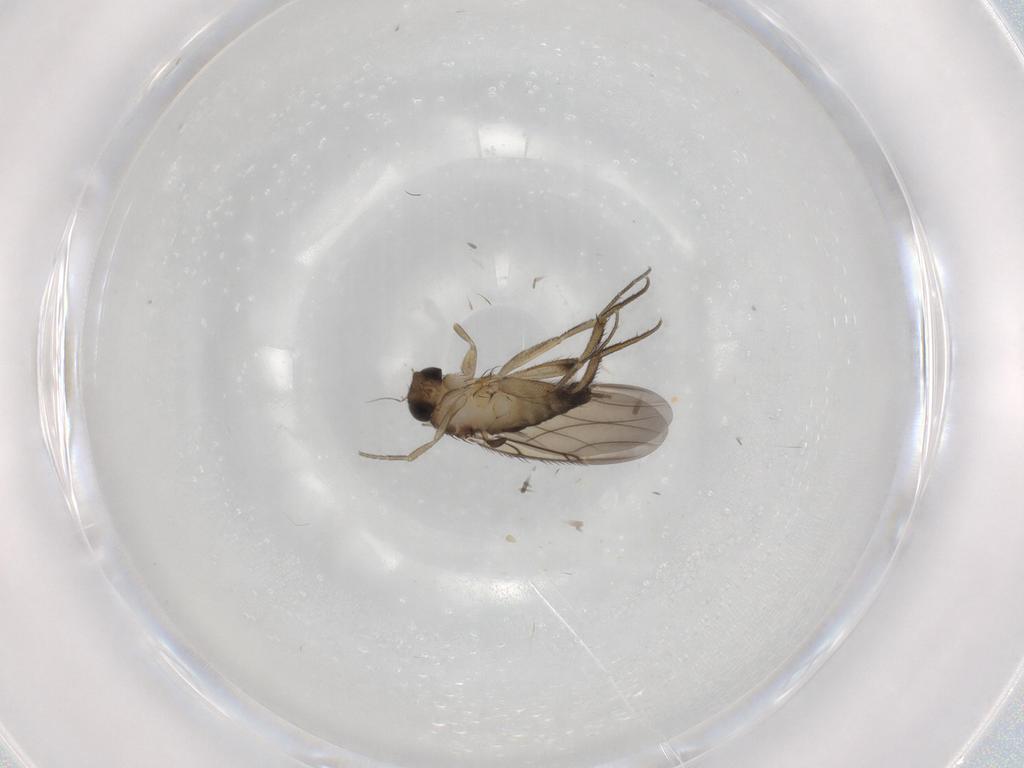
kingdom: Animalia
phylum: Arthropoda
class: Insecta
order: Diptera
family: Phoridae
